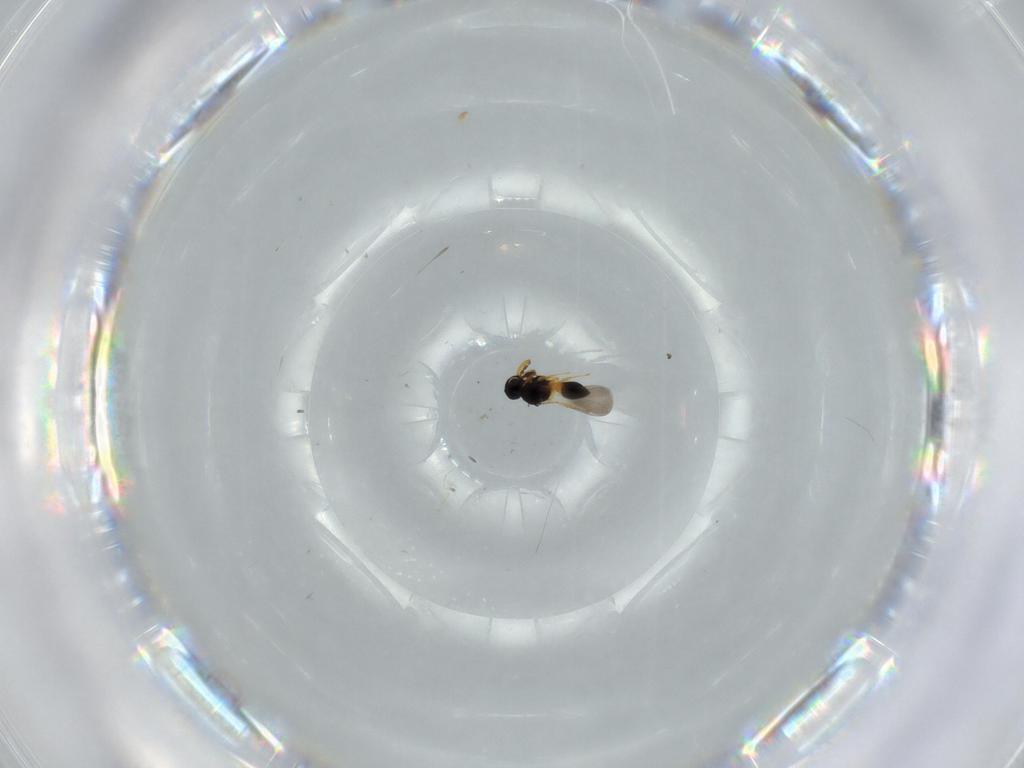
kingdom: Animalia
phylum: Arthropoda
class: Insecta
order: Hymenoptera
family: Platygastridae
